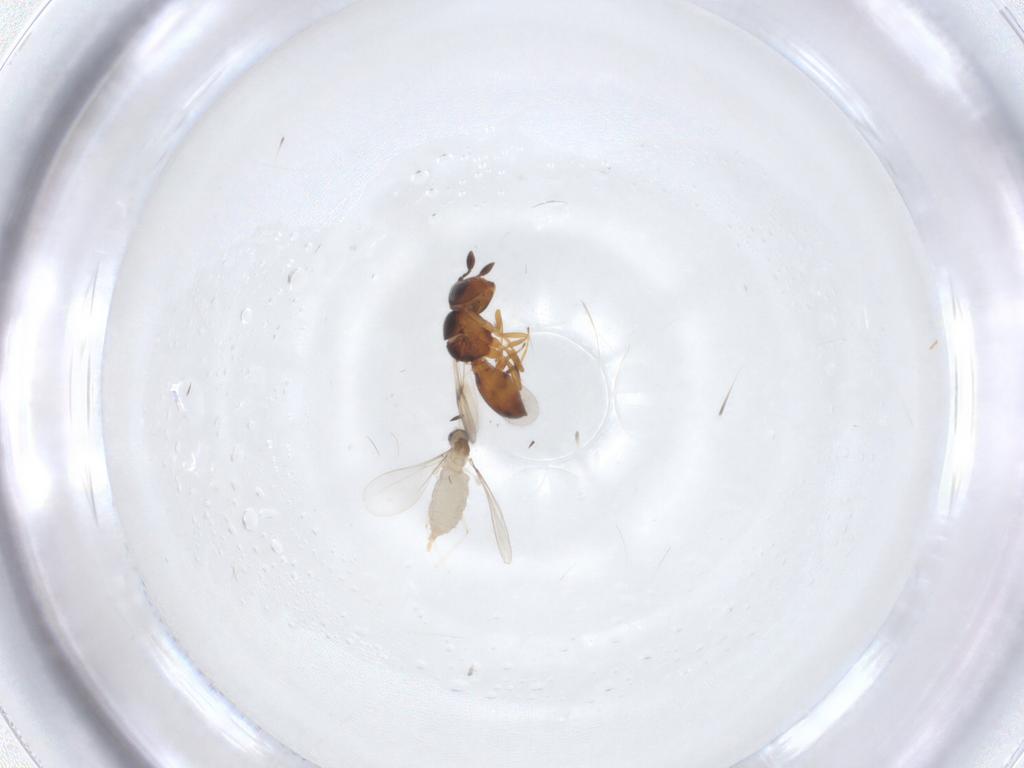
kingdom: Animalia
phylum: Arthropoda
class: Insecta
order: Hymenoptera
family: Scelionidae
